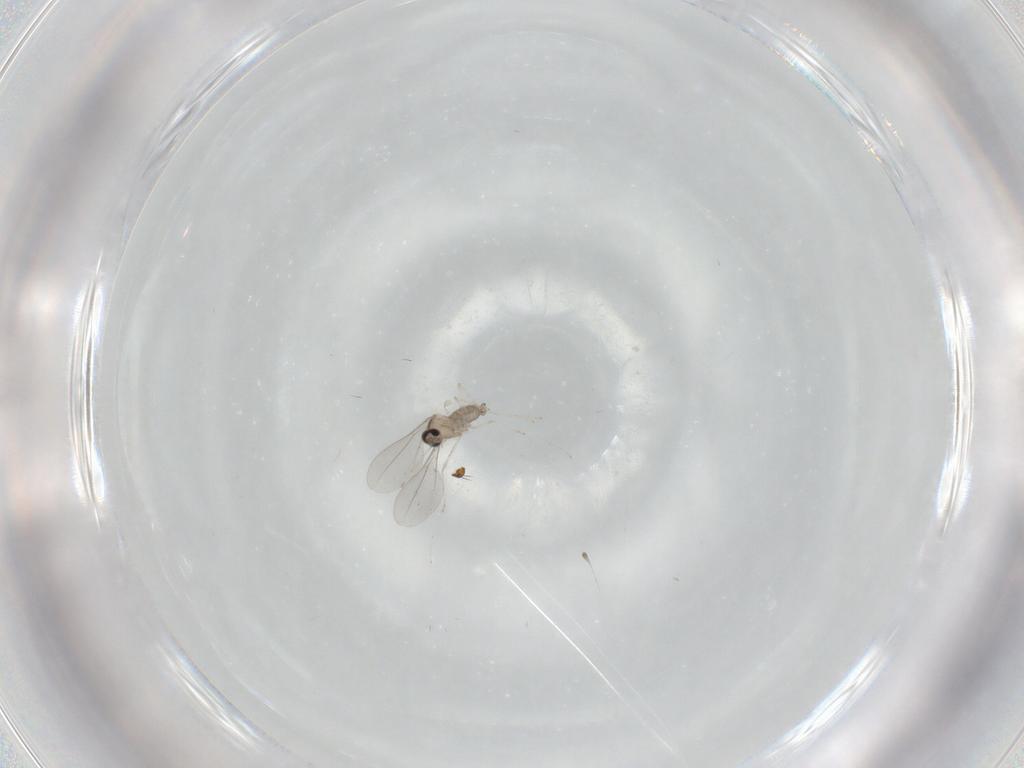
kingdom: Animalia
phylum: Arthropoda
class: Insecta
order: Diptera
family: Cecidomyiidae
